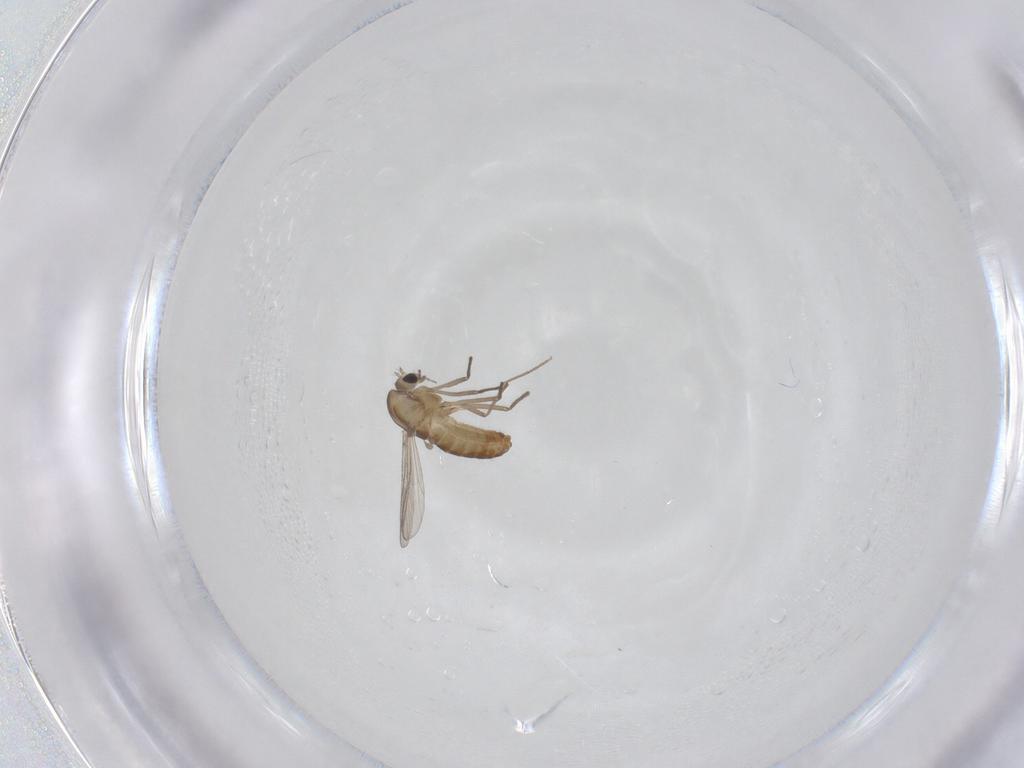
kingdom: Animalia
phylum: Arthropoda
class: Insecta
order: Diptera
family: Chironomidae
